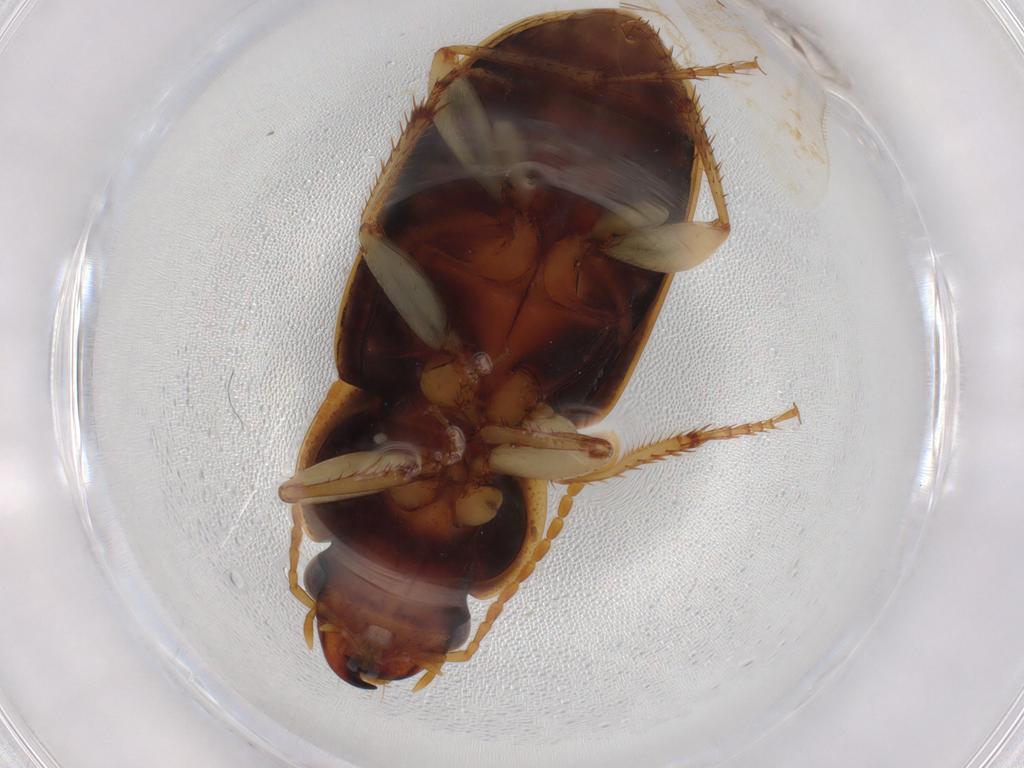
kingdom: Animalia
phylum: Arthropoda
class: Insecta
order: Coleoptera
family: Carabidae
